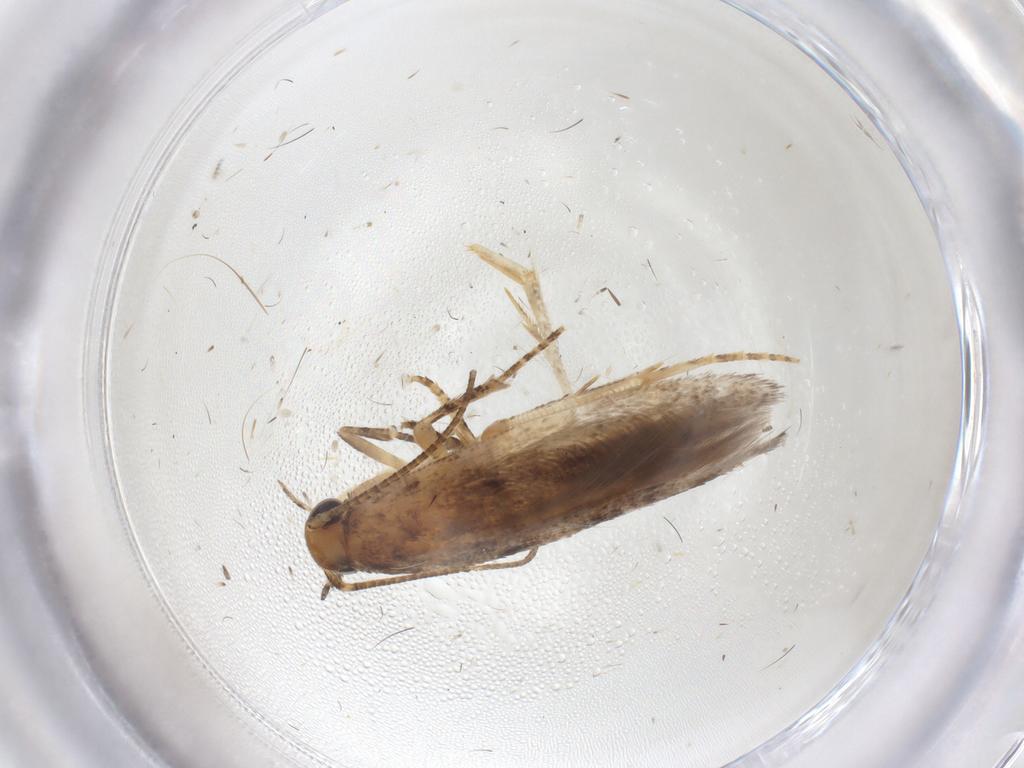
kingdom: Animalia
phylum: Arthropoda
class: Insecta
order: Lepidoptera
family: Gelechiidae
